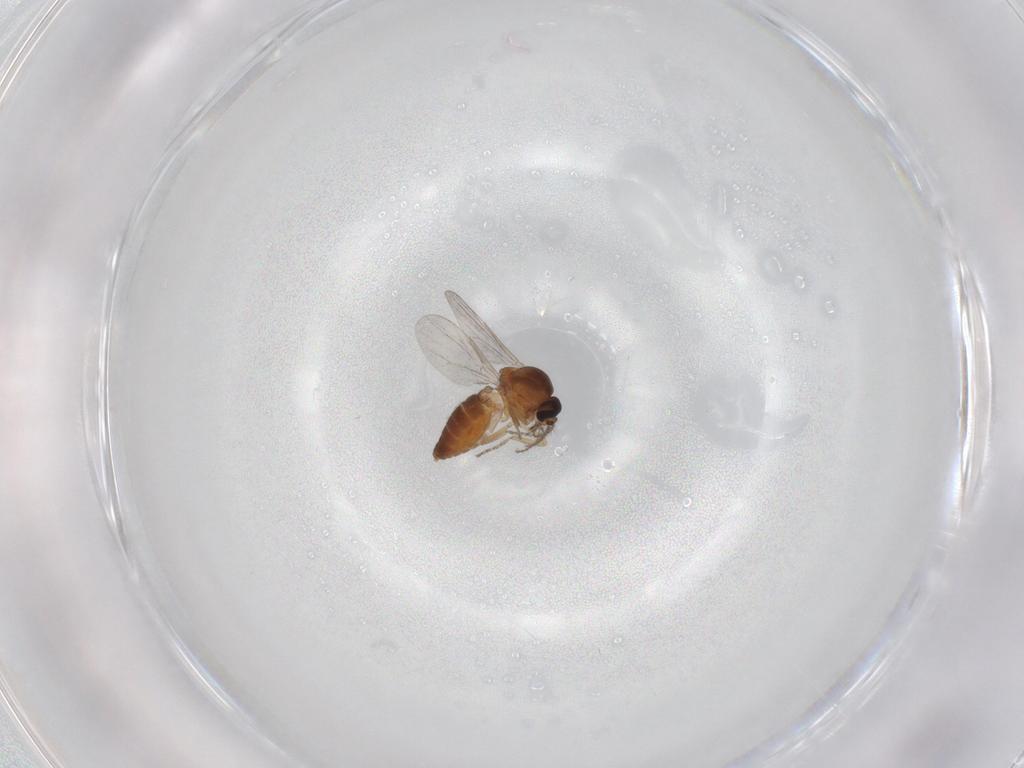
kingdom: Animalia
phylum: Arthropoda
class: Insecta
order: Diptera
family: Ceratopogonidae
